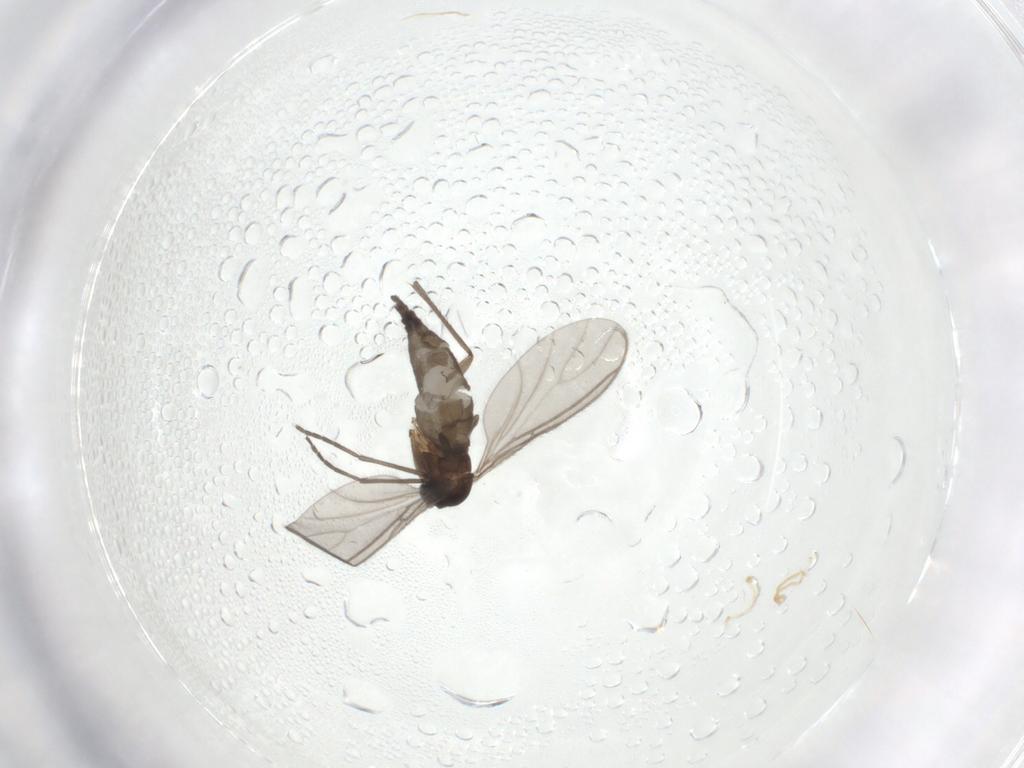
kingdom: Animalia
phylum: Arthropoda
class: Insecta
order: Diptera
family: Sciaridae
